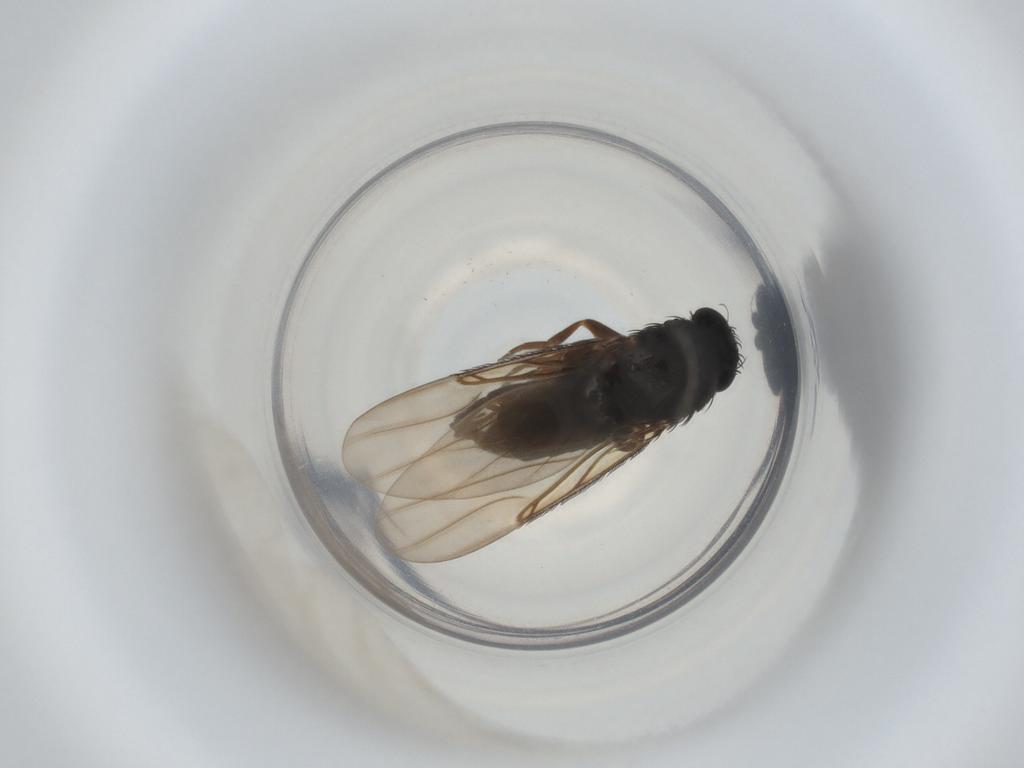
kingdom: Animalia
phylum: Arthropoda
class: Insecta
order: Diptera
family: Phoridae
